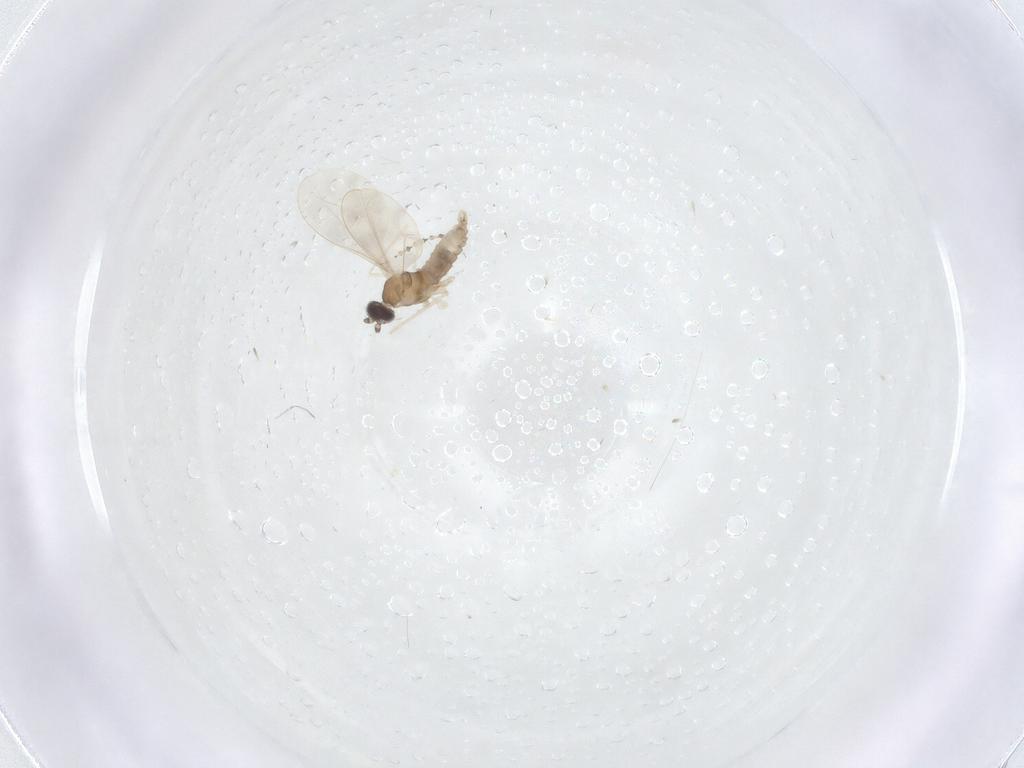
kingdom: Animalia
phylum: Arthropoda
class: Insecta
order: Diptera
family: Cecidomyiidae
